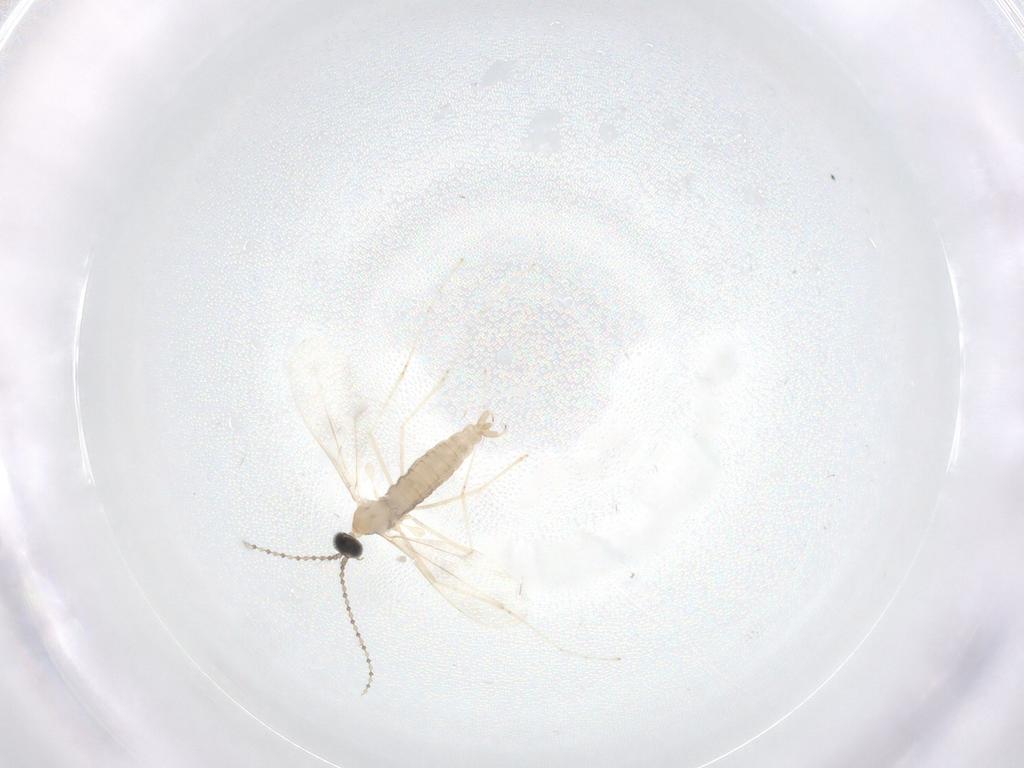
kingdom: Animalia
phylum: Arthropoda
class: Insecta
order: Diptera
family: Cecidomyiidae
